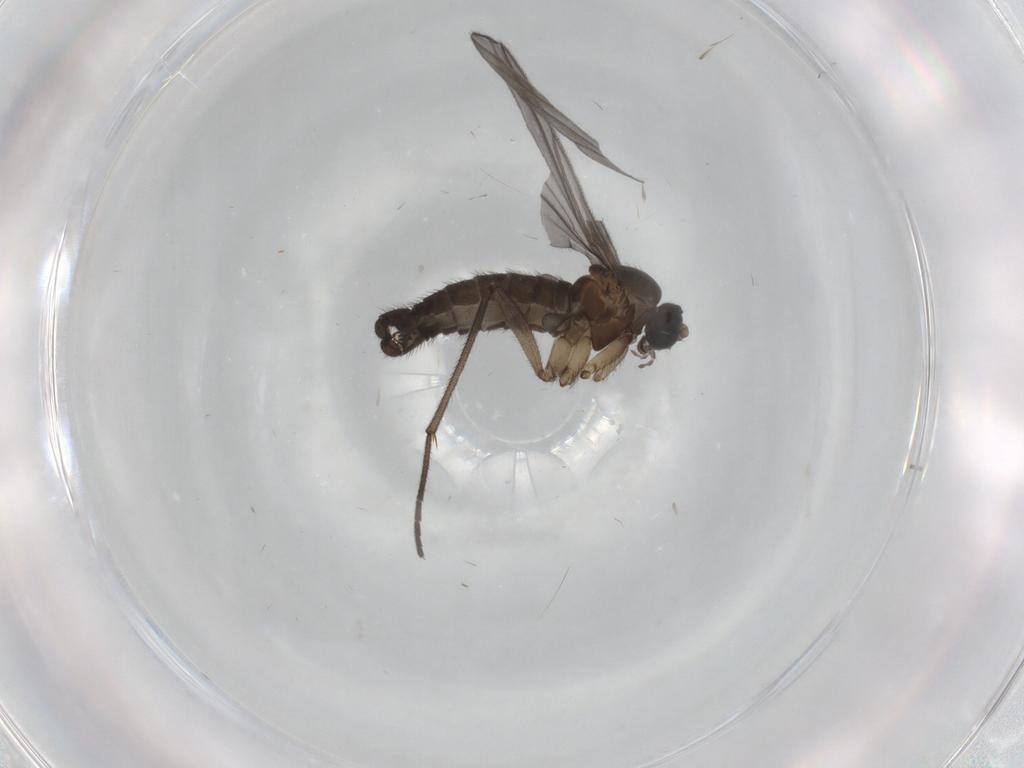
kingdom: Animalia
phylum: Arthropoda
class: Insecta
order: Diptera
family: Sciaridae
